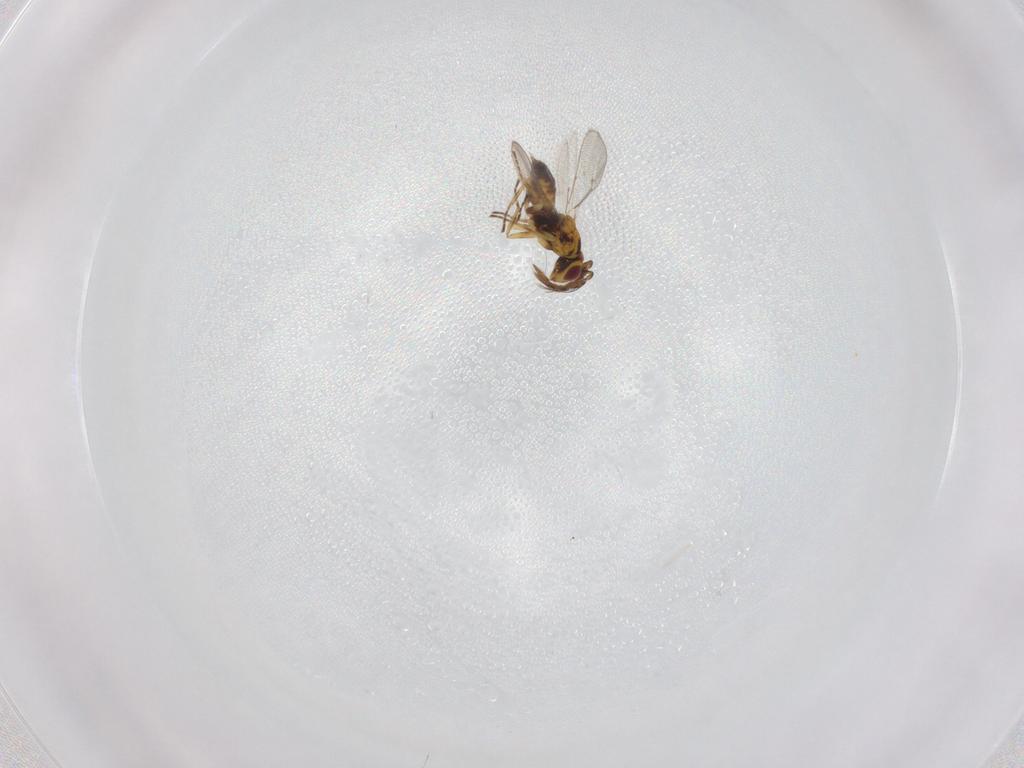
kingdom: Animalia
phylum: Arthropoda
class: Insecta
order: Hymenoptera
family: Eulophidae
